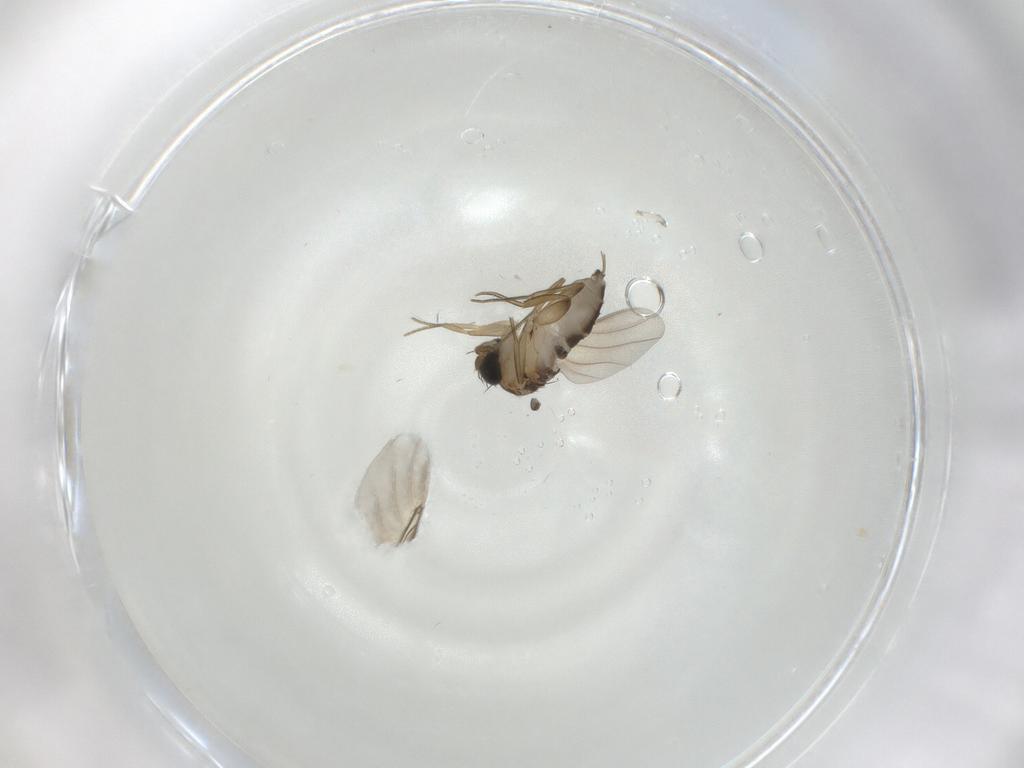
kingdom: Animalia
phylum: Arthropoda
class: Insecta
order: Diptera
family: Phoridae
